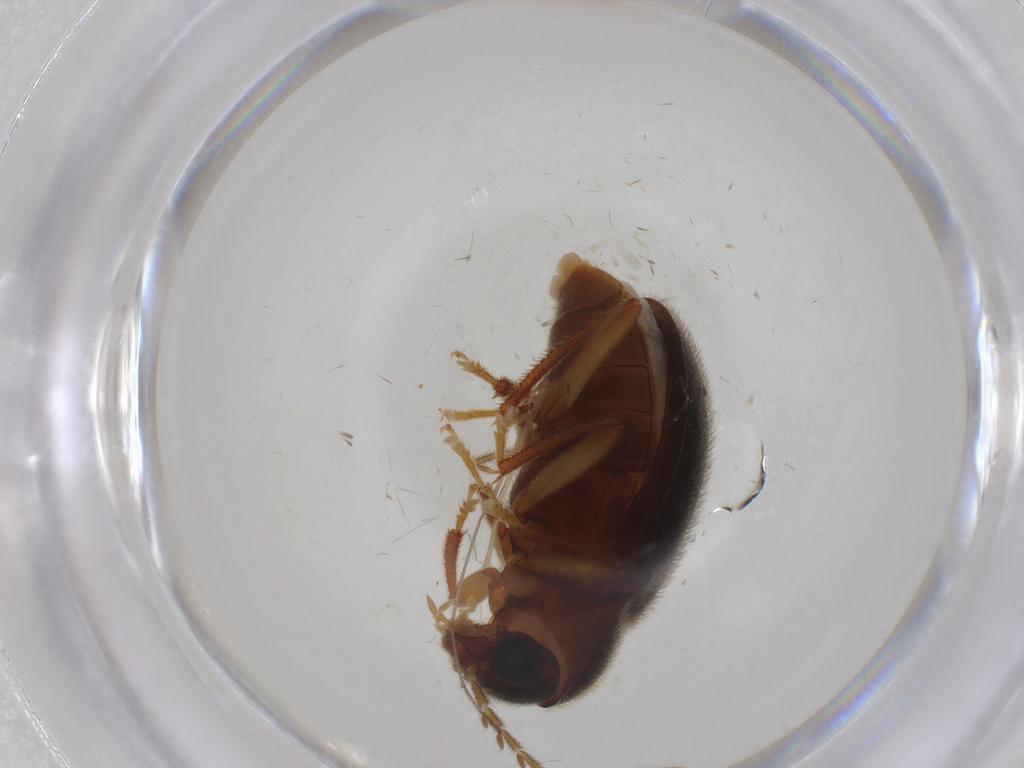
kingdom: Animalia
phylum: Arthropoda
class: Insecta
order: Coleoptera
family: Ptilodactylidae
